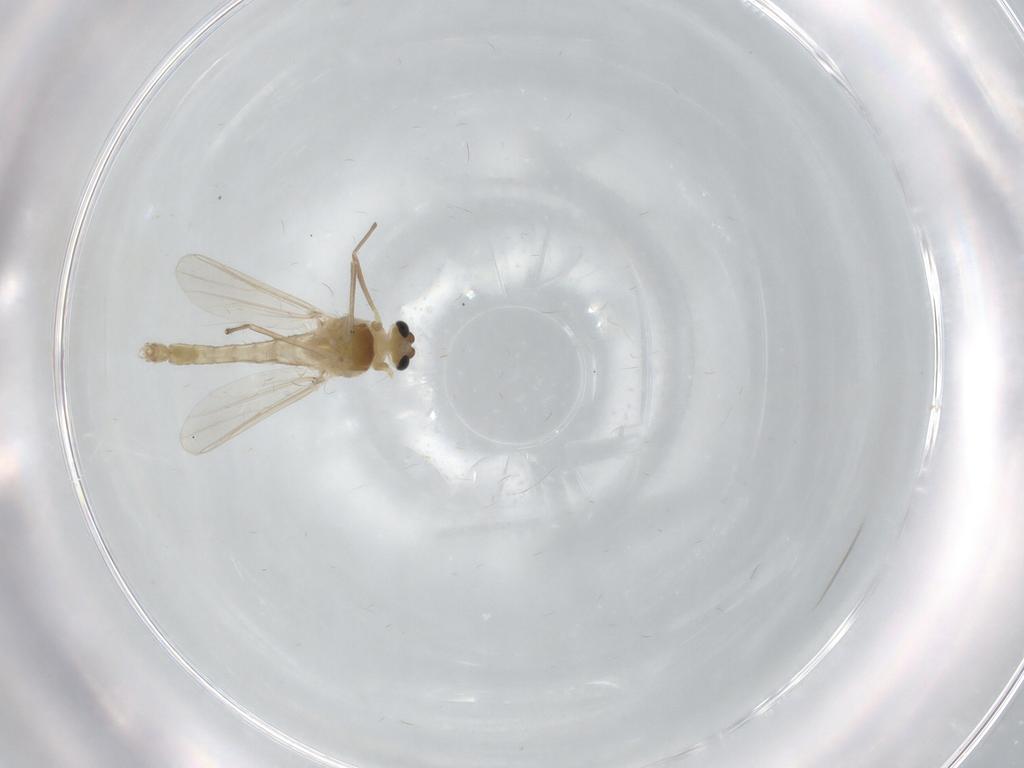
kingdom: Animalia
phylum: Arthropoda
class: Insecta
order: Diptera
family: Chironomidae
